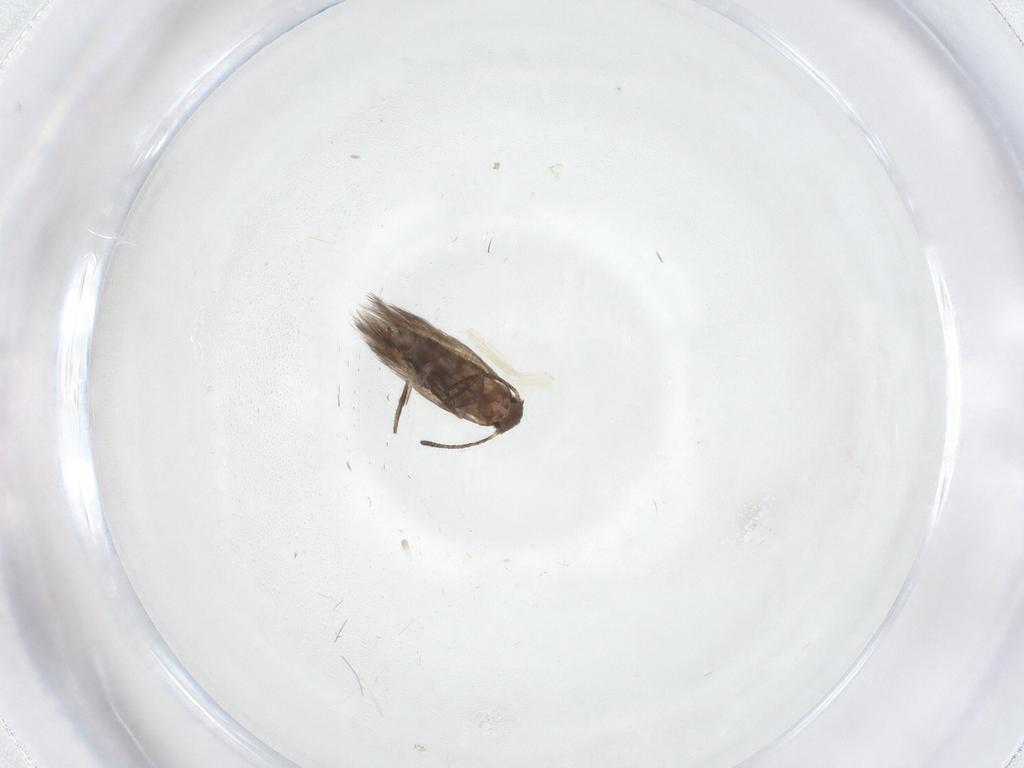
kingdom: Animalia
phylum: Arthropoda
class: Insecta
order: Lepidoptera
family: Lyonetiidae
